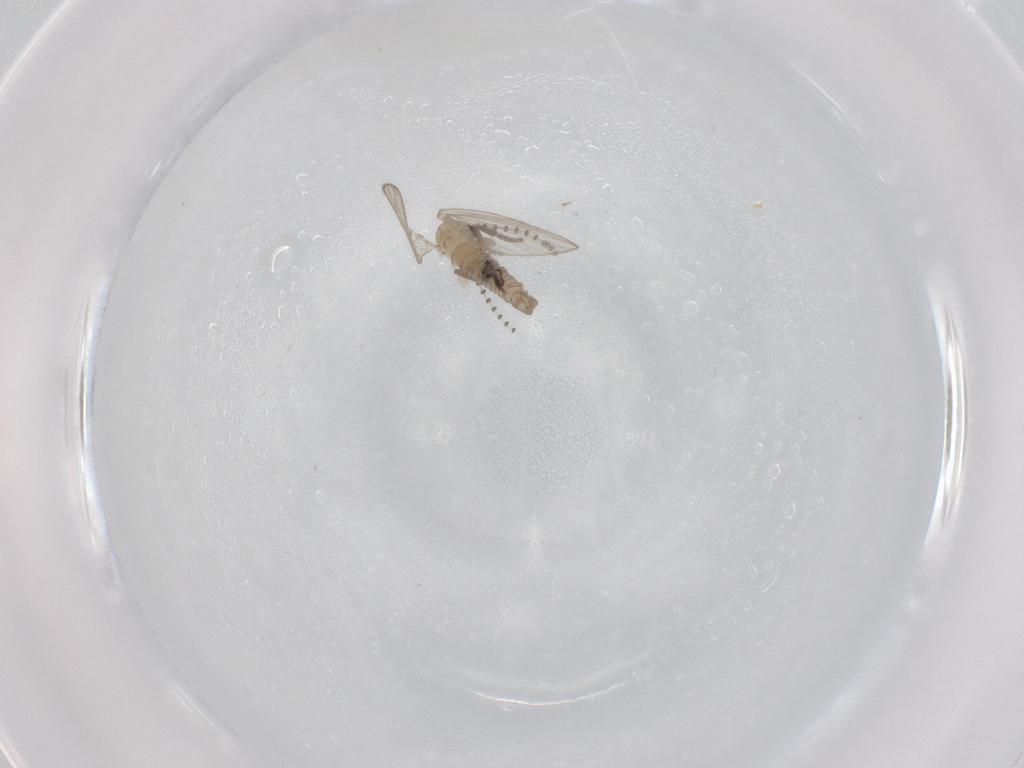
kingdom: Animalia
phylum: Arthropoda
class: Insecta
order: Diptera
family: Psychodidae
